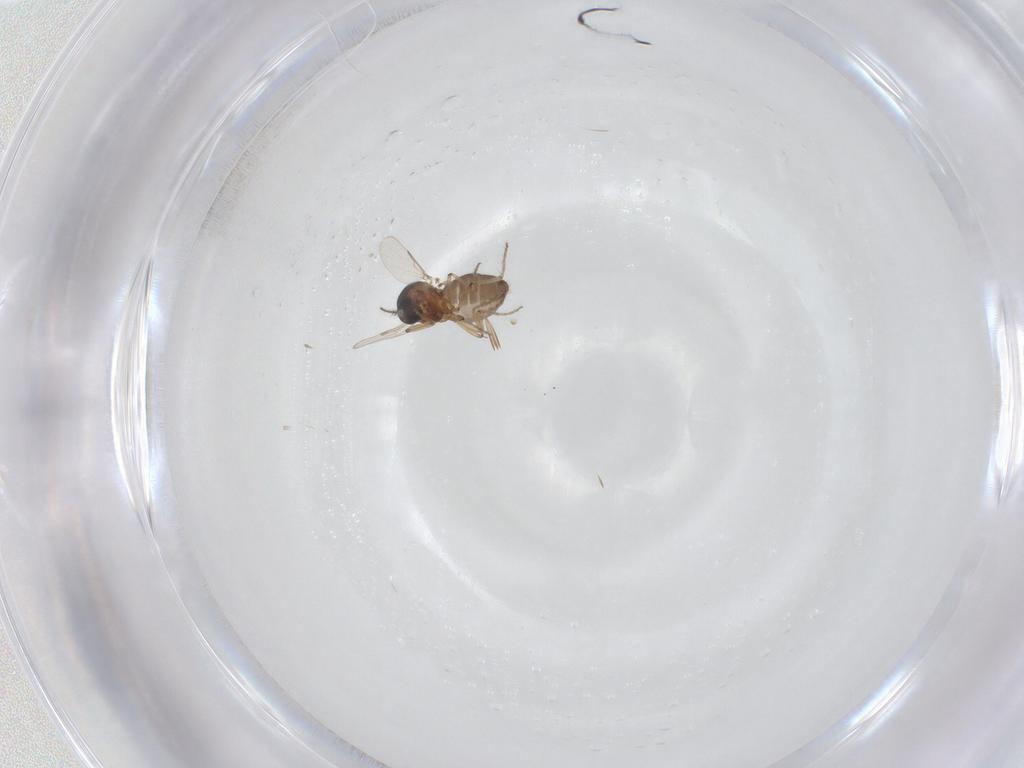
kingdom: Animalia
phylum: Arthropoda
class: Insecta
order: Diptera
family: Ceratopogonidae
